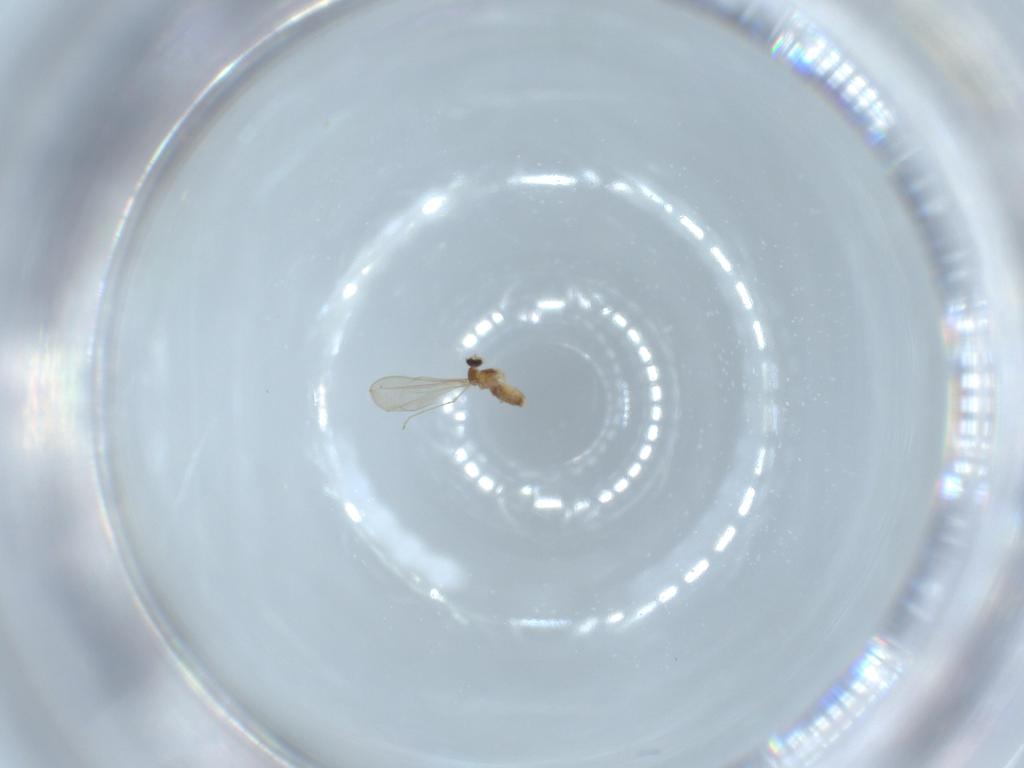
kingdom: Animalia
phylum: Arthropoda
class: Insecta
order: Diptera
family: Cecidomyiidae
